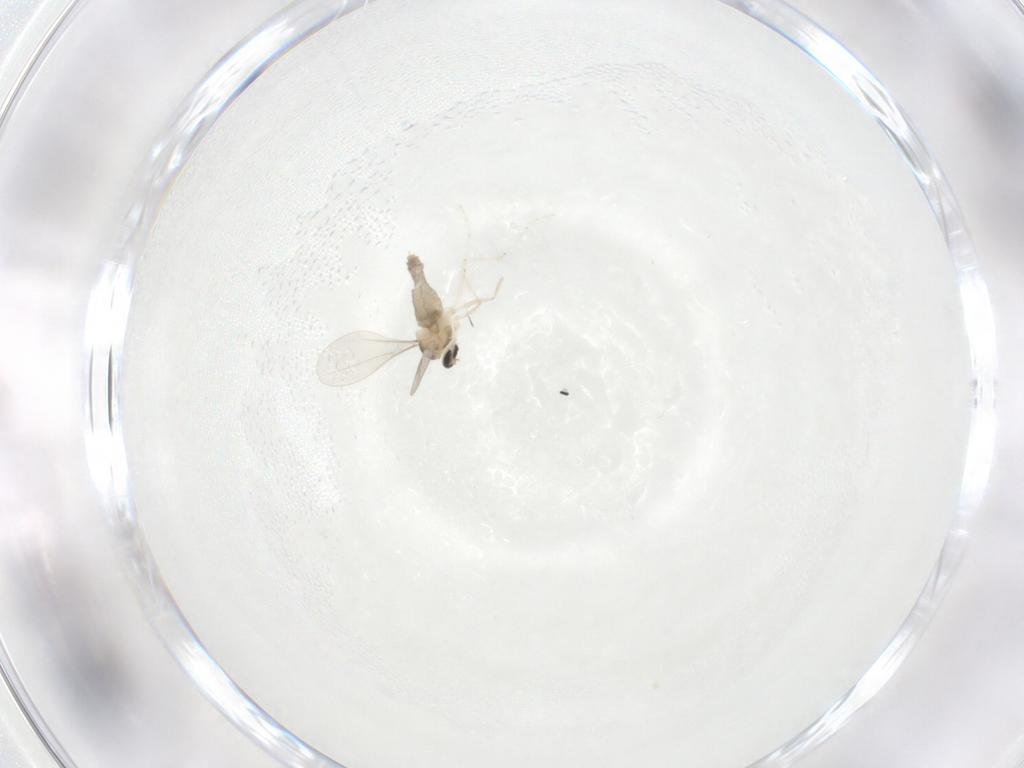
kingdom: Animalia
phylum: Arthropoda
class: Insecta
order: Diptera
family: Ceratopogonidae
